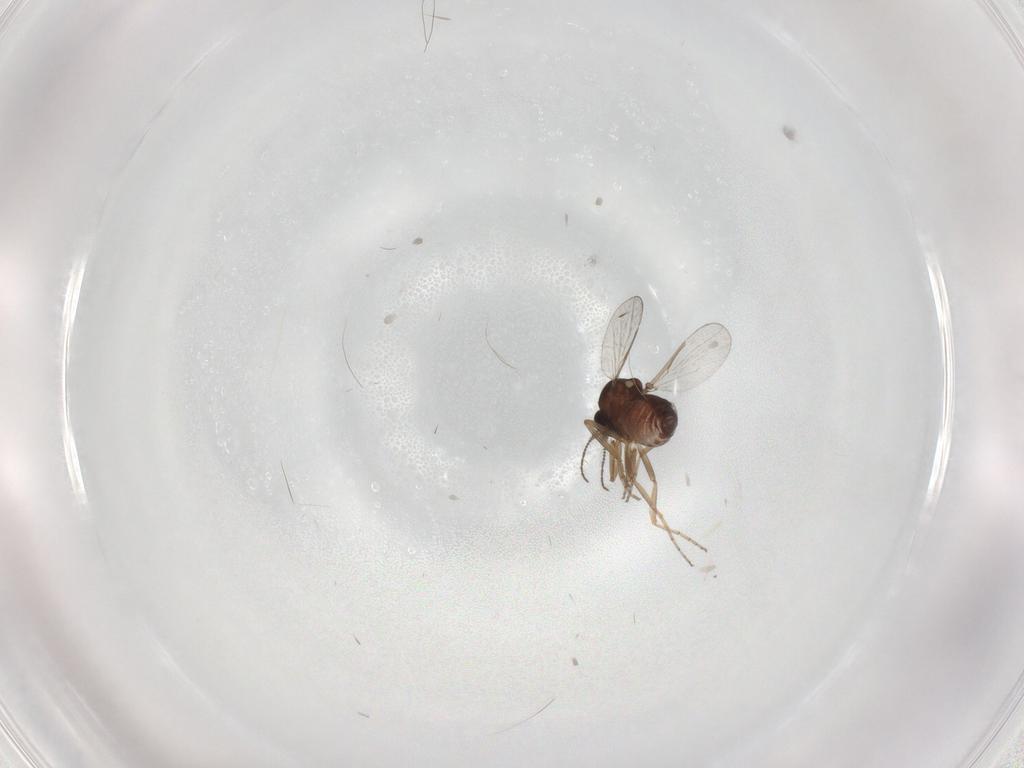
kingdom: Animalia
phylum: Arthropoda
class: Insecta
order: Diptera
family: Ceratopogonidae
